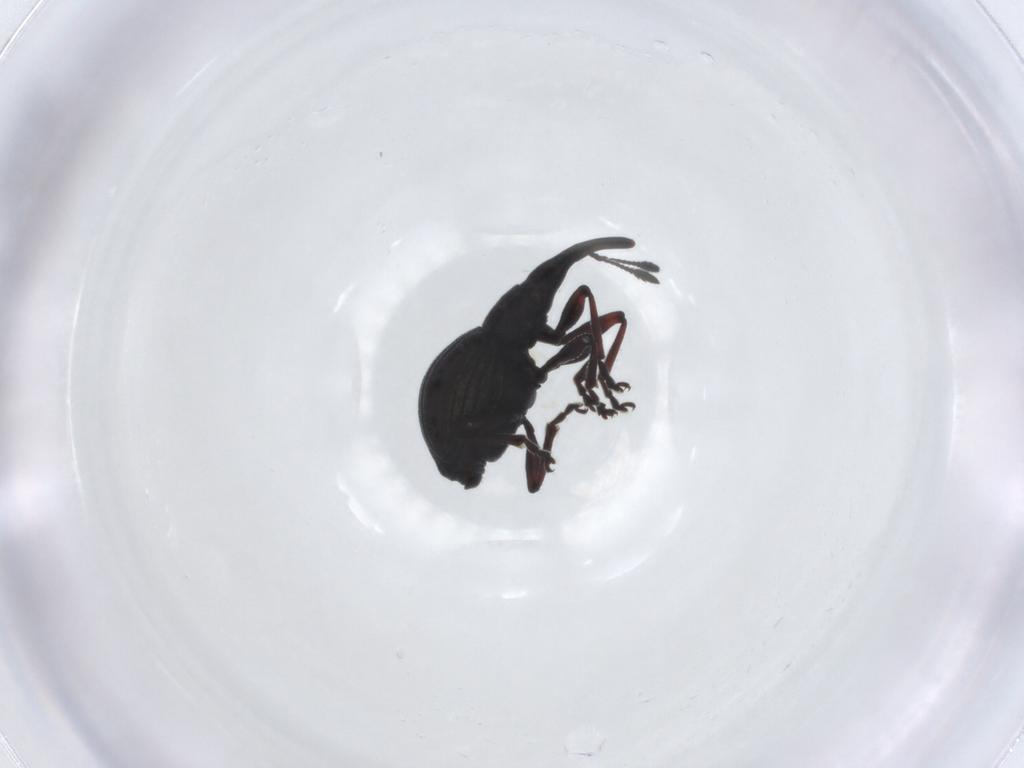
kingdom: Animalia
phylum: Arthropoda
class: Insecta
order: Coleoptera
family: Brentidae
